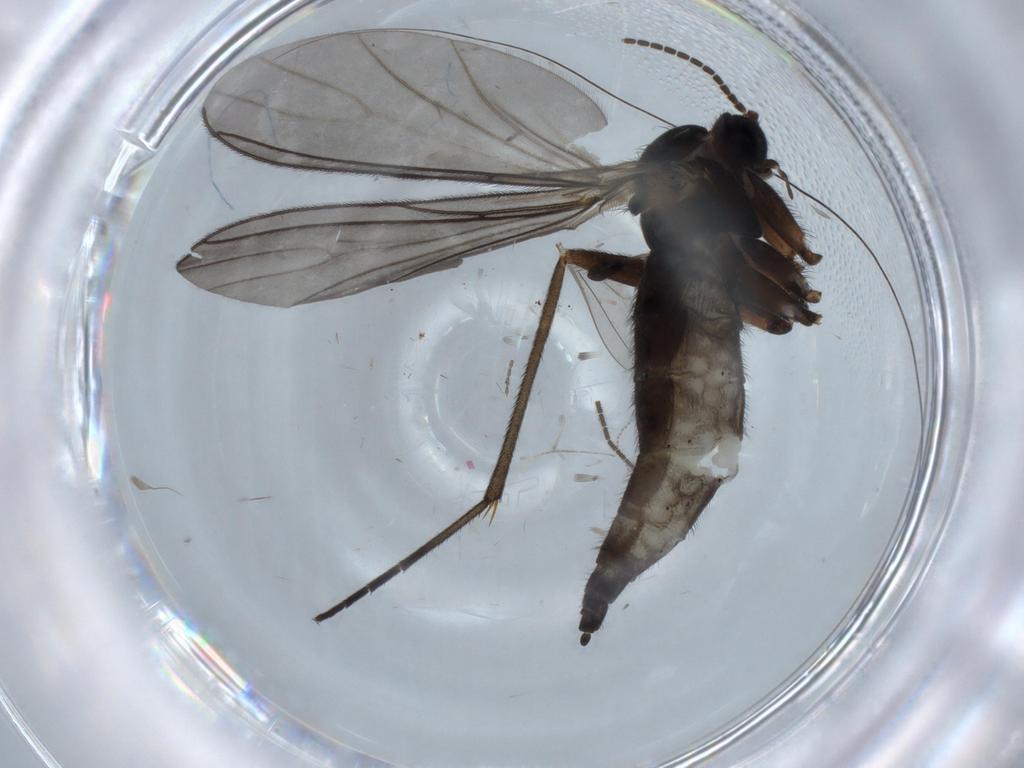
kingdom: Animalia
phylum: Arthropoda
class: Insecta
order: Diptera
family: Sciaridae
